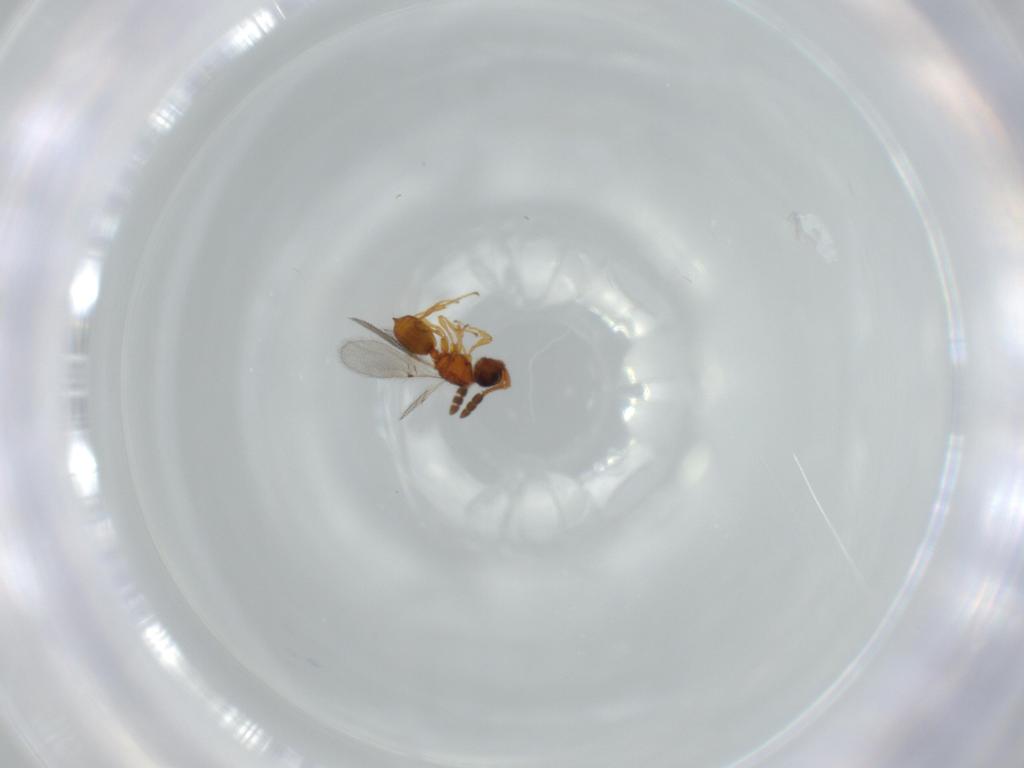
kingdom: Animalia
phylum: Arthropoda
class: Insecta
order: Hymenoptera
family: Diapriidae
